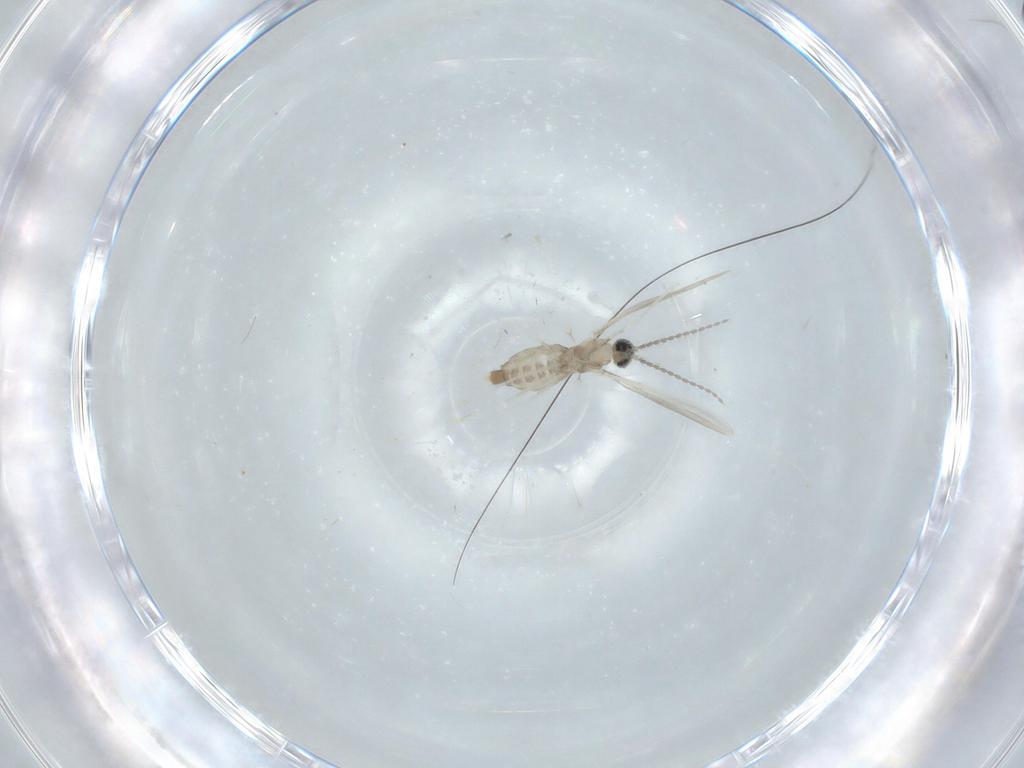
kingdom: Animalia
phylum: Arthropoda
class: Insecta
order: Diptera
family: Cecidomyiidae
